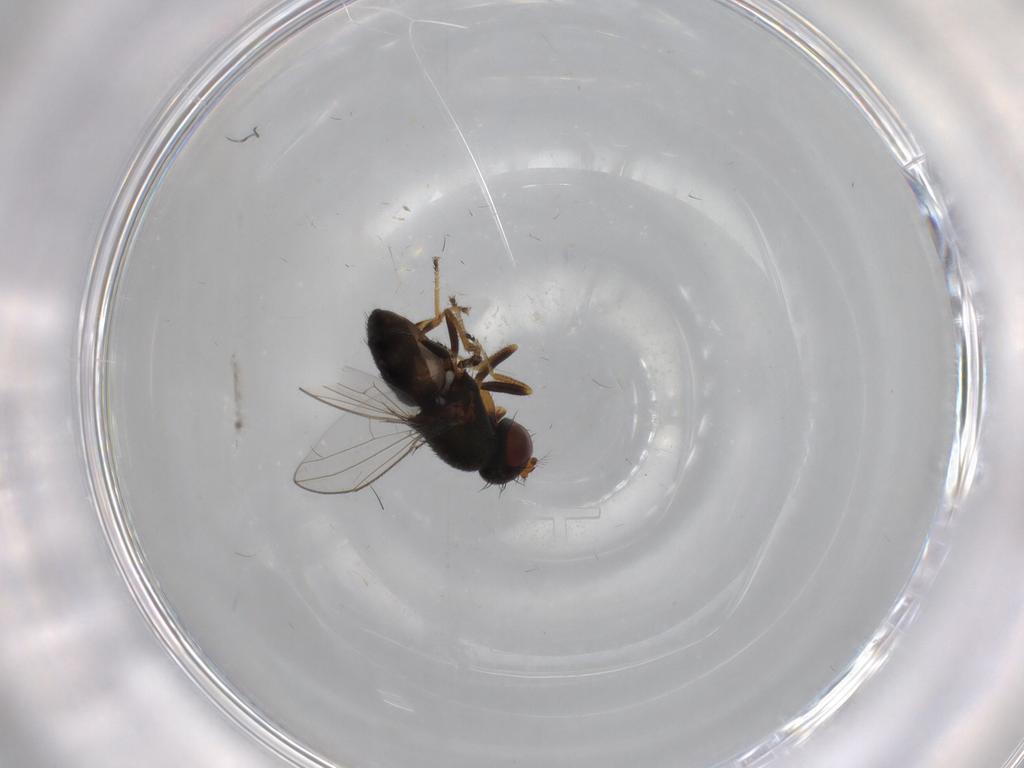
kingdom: Animalia
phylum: Arthropoda
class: Insecta
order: Diptera
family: Ephydridae
